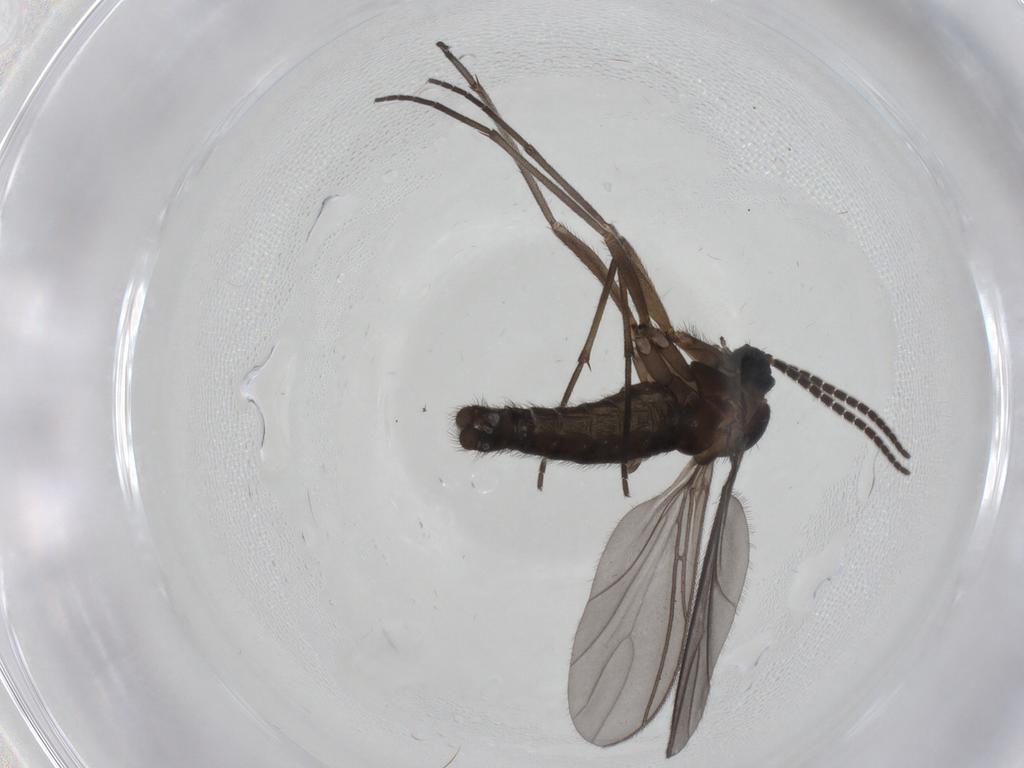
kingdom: Animalia
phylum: Arthropoda
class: Insecta
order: Diptera
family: Sciaridae
